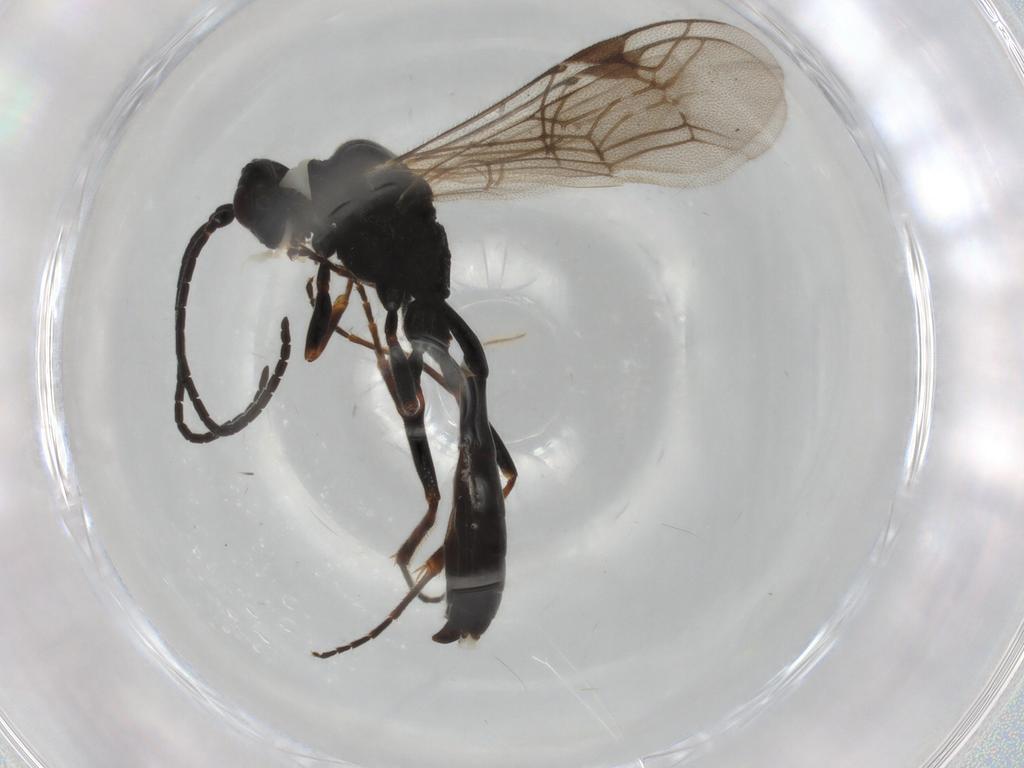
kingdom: Animalia
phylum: Arthropoda
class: Insecta
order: Hymenoptera
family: Ichneumonidae
